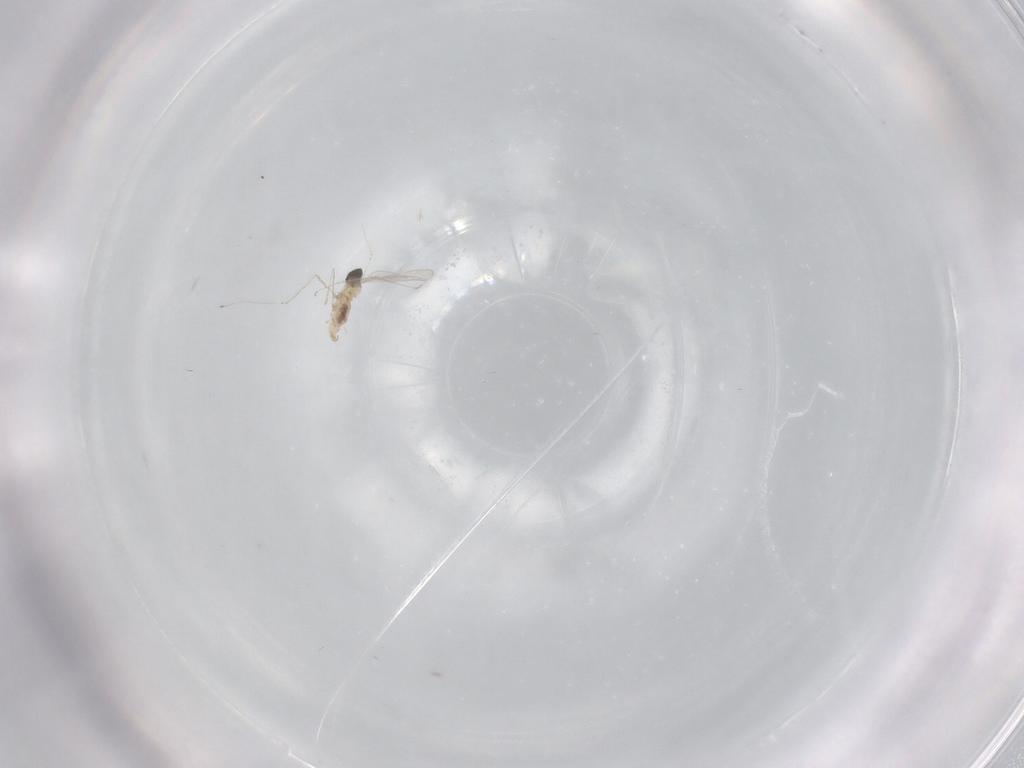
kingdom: Animalia
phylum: Arthropoda
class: Insecta
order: Diptera
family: Cecidomyiidae
